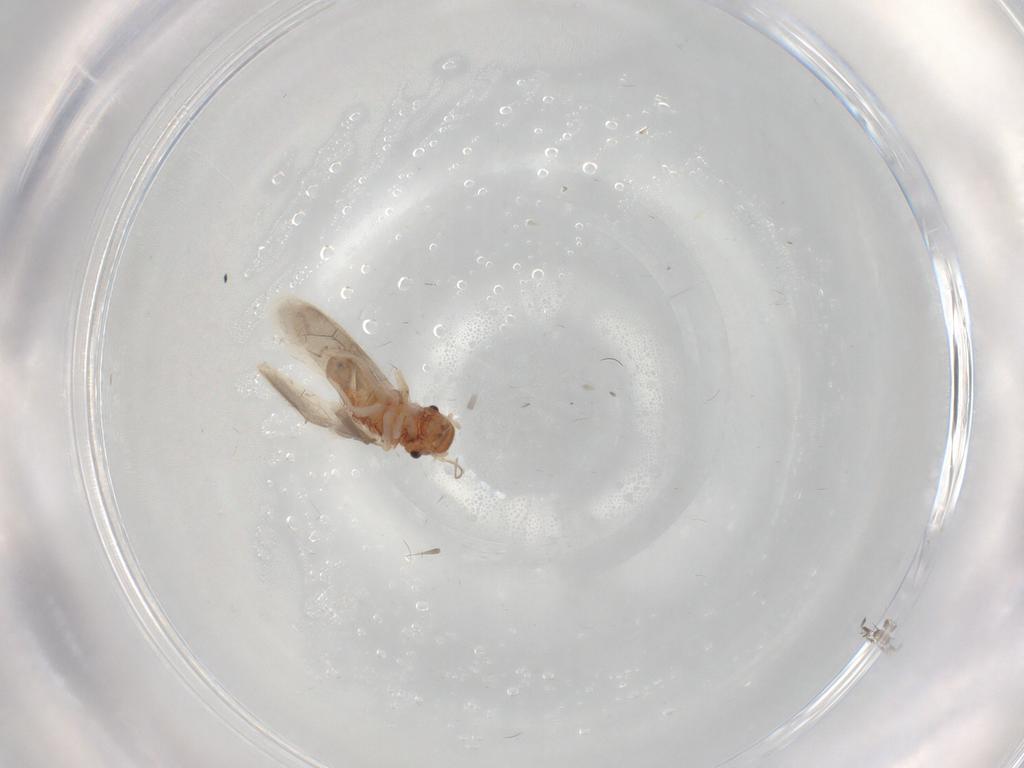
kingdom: Animalia
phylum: Arthropoda
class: Insecta
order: Psocodea
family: Archipsocidae
